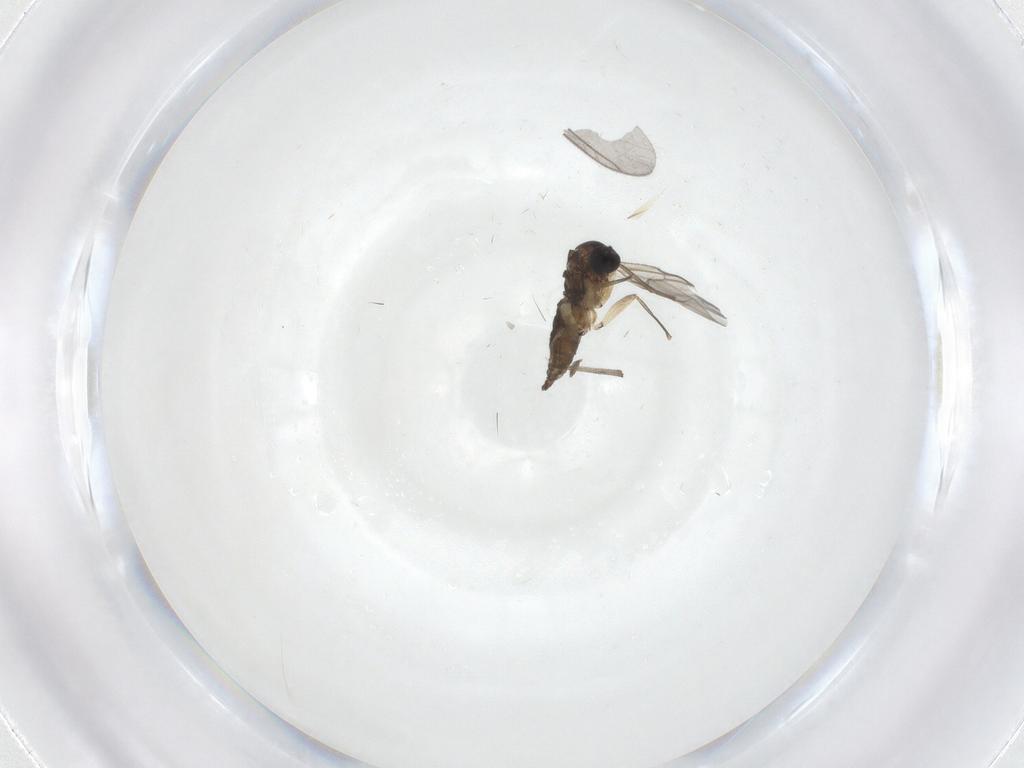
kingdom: Animalia
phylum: Arthropoda
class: Insecta
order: Diptera
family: Sciaridae
